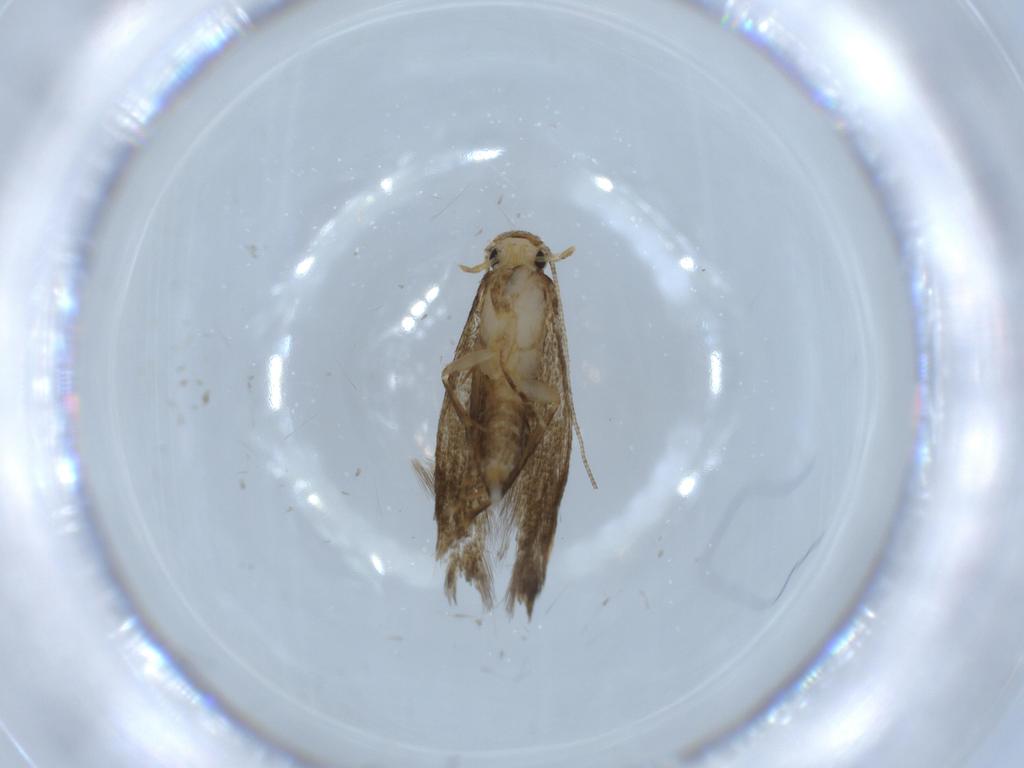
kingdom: Animalia
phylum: Arthropoda
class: Insecta
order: Lepidoptera
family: Tineidae
